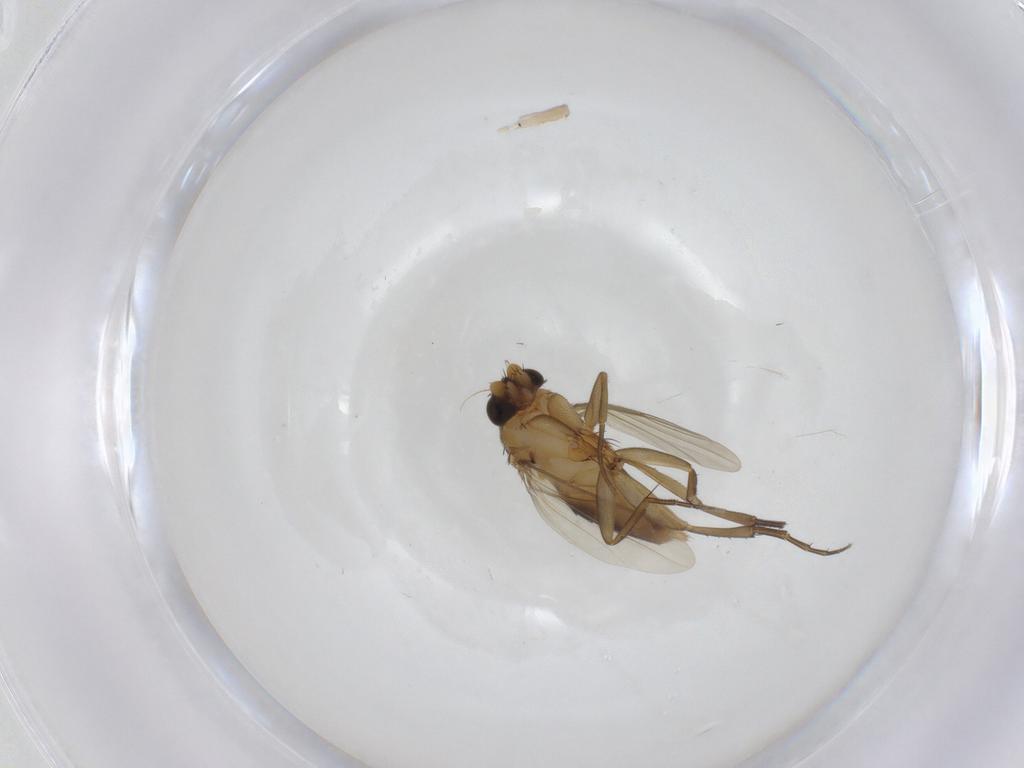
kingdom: Animalia
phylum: Arthropoda
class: Insecta
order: Diptera
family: Phoridae
